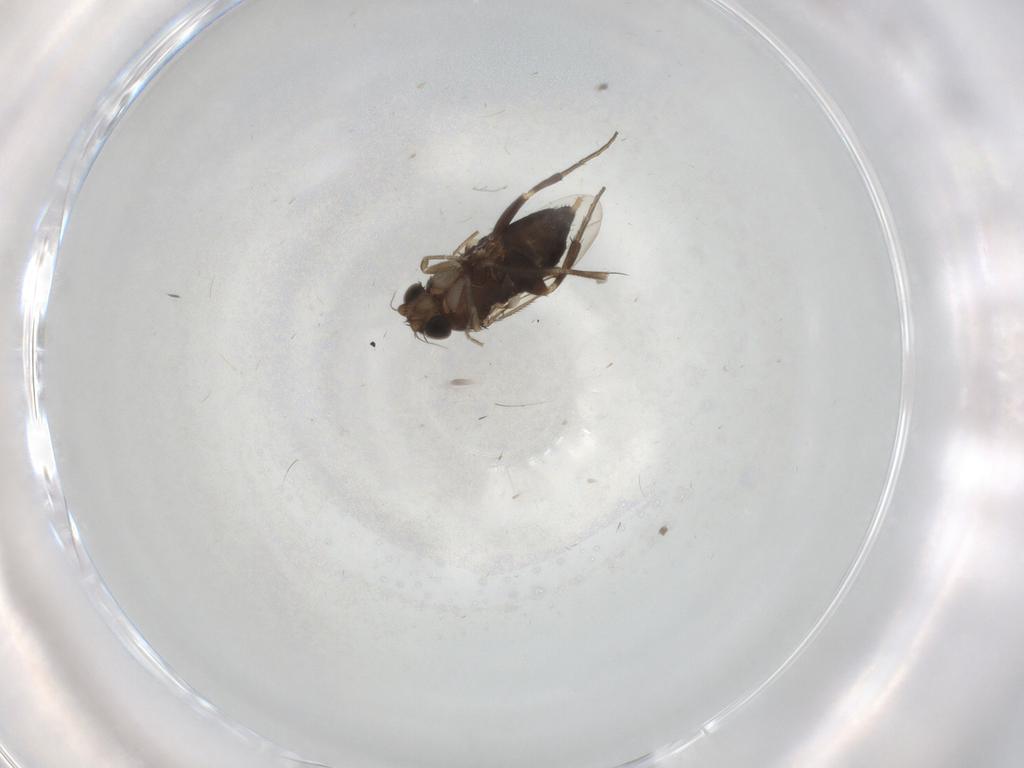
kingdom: Animalia
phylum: Arthropoda
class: Insecta
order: Diptera
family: Phoridae
